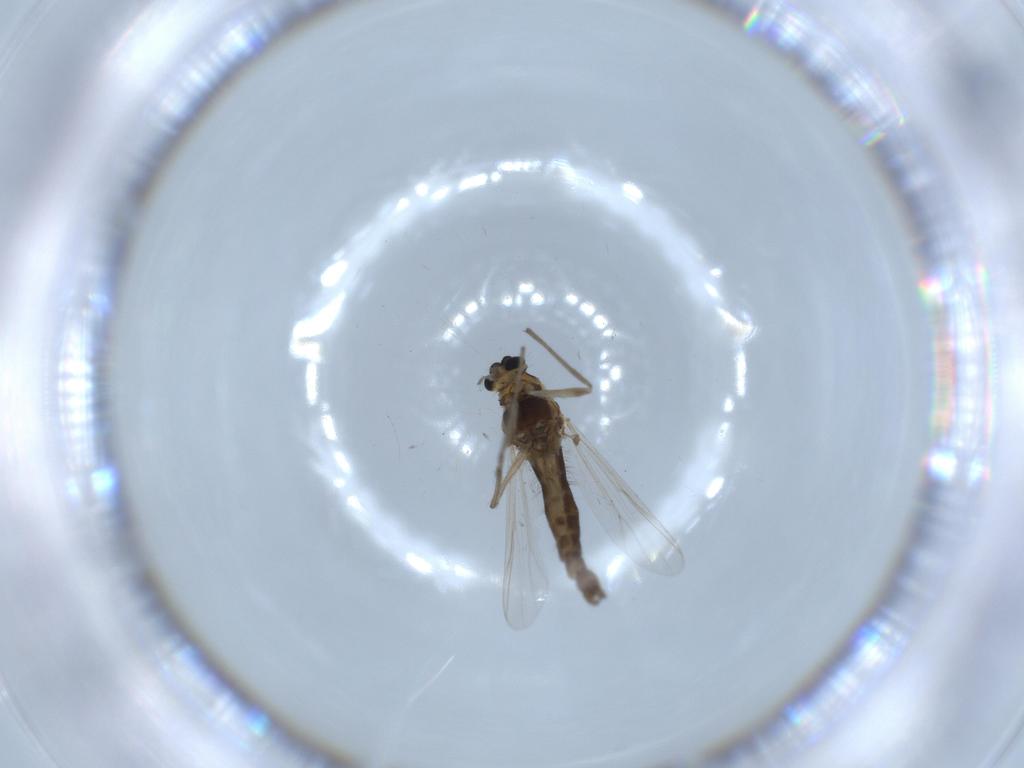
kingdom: Animalia
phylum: Arthropoda
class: Insecta
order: Diptera
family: Chironomidae
